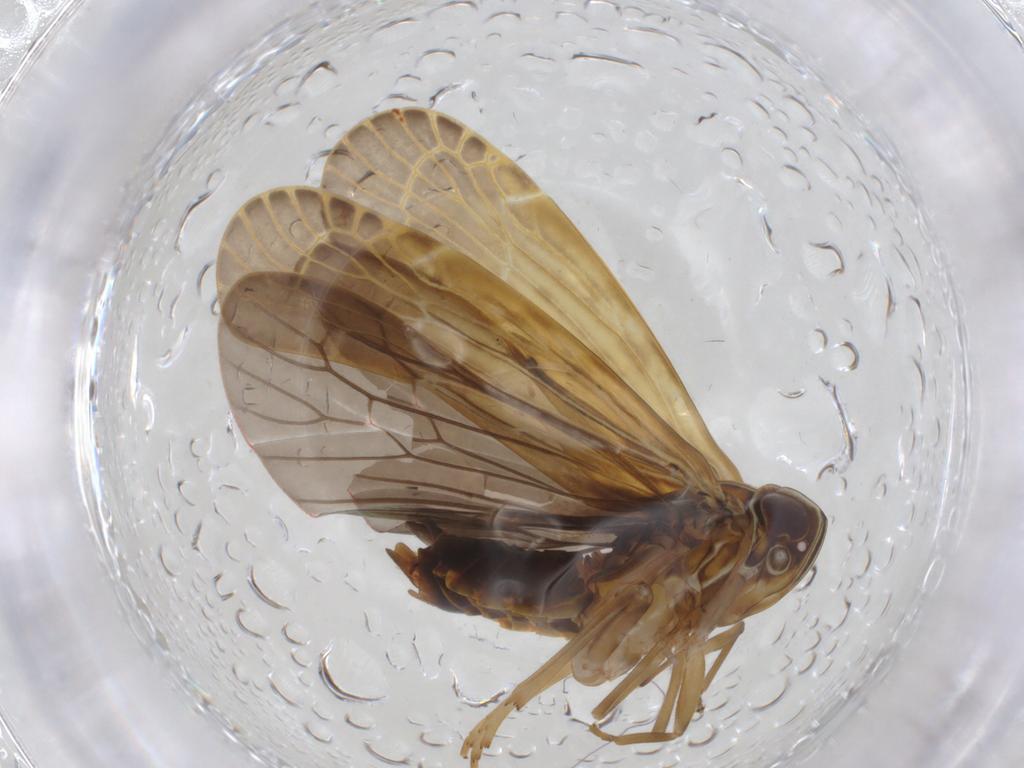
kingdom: Animalia
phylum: Arthropoda
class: Insecta
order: Hemiptera
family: Achilidae
